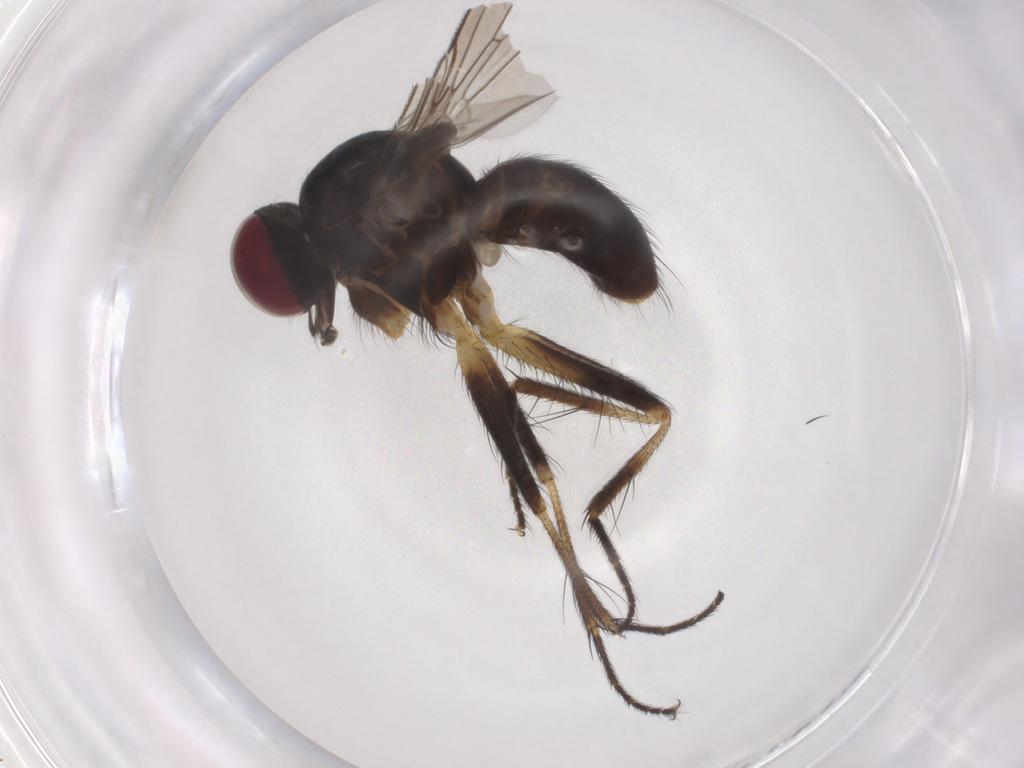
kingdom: Animalia
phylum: Arthropoda
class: Insecta
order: Diptera
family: Anthomyiidae
